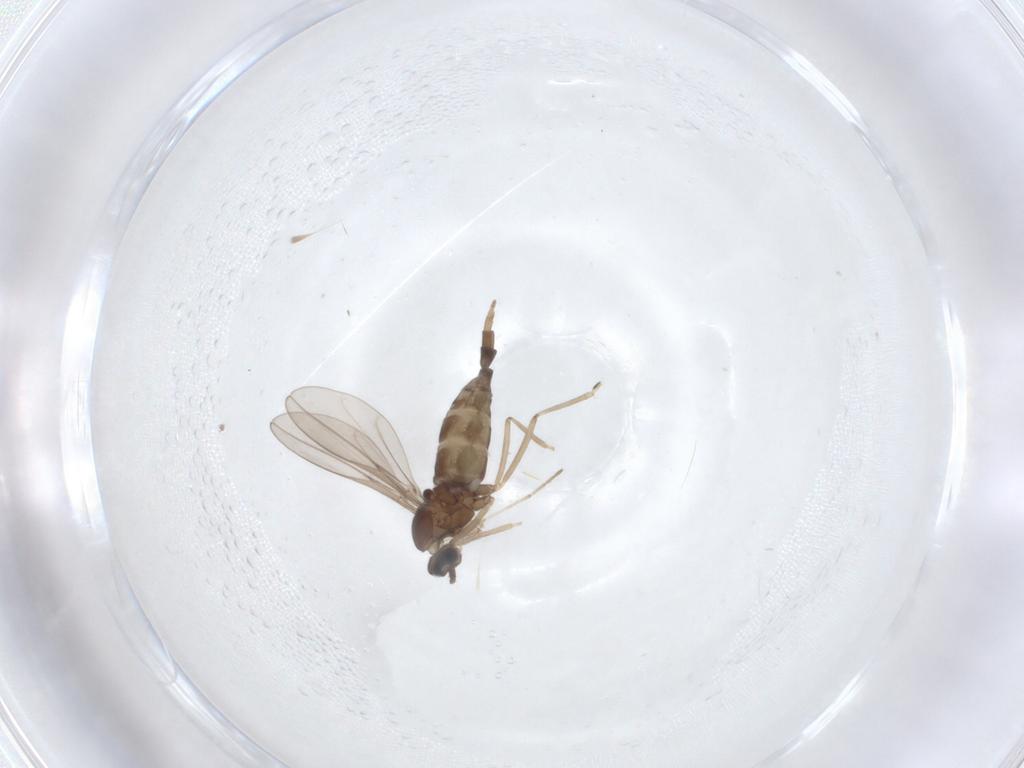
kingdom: Animalia
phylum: Arthropoda
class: Insecta
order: Diptera
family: Cecidomyiidae
